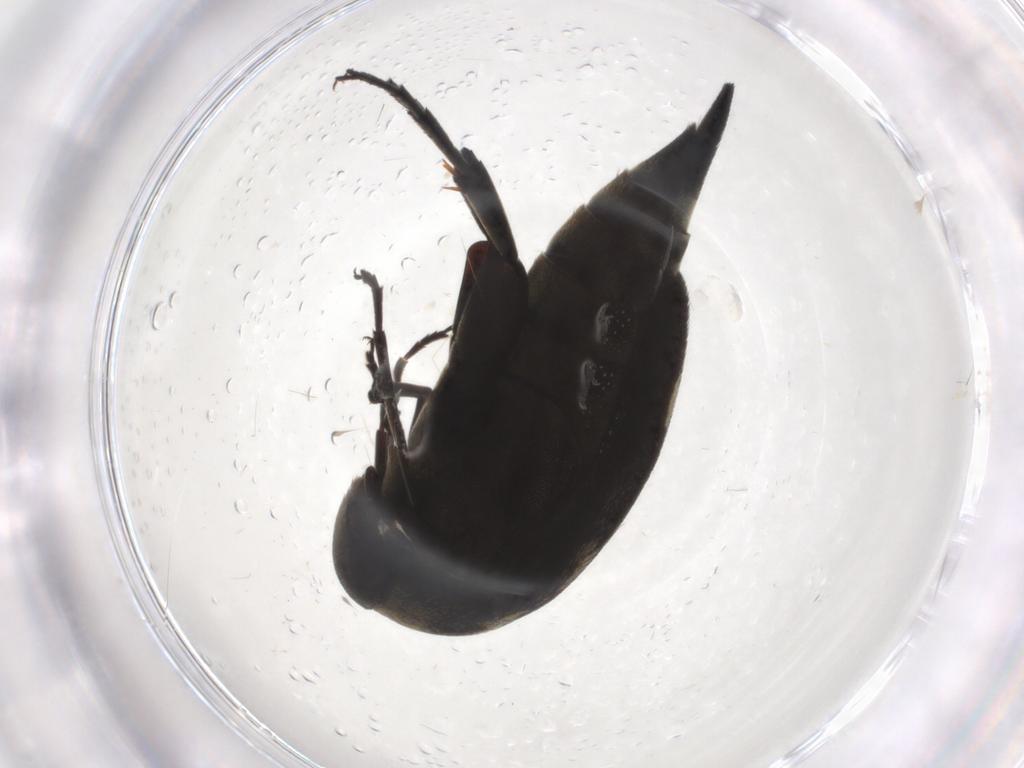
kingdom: Animalia
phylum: Arthropoda
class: Insecta
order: Coleoptera
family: Mordellidae
